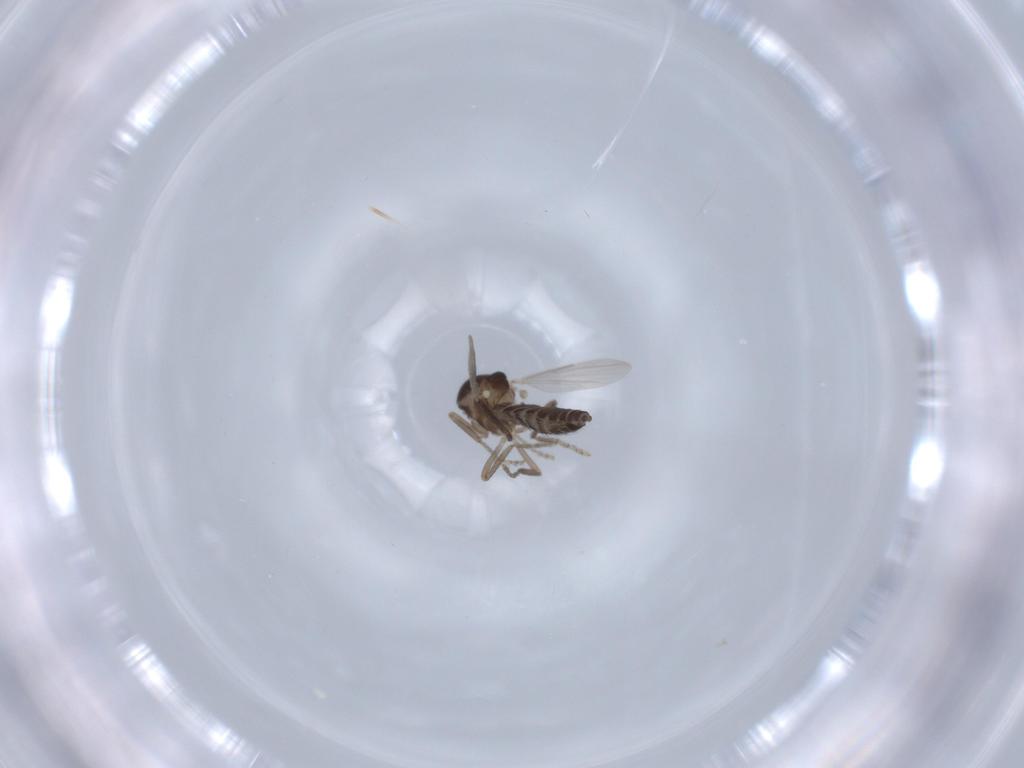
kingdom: Animalia
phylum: Arthropoda
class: Insecta
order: Diptera
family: Ceratopogonidae
